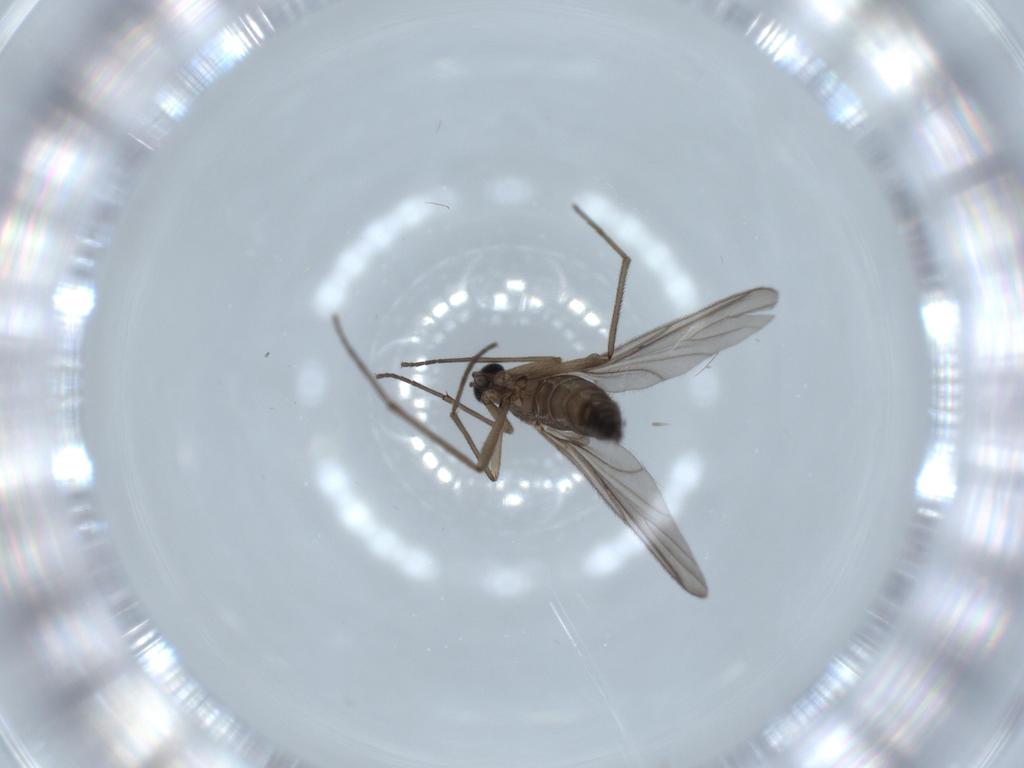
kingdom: Animalia
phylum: Arthropoda
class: Insecta
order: Diptera
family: Sciaridae
